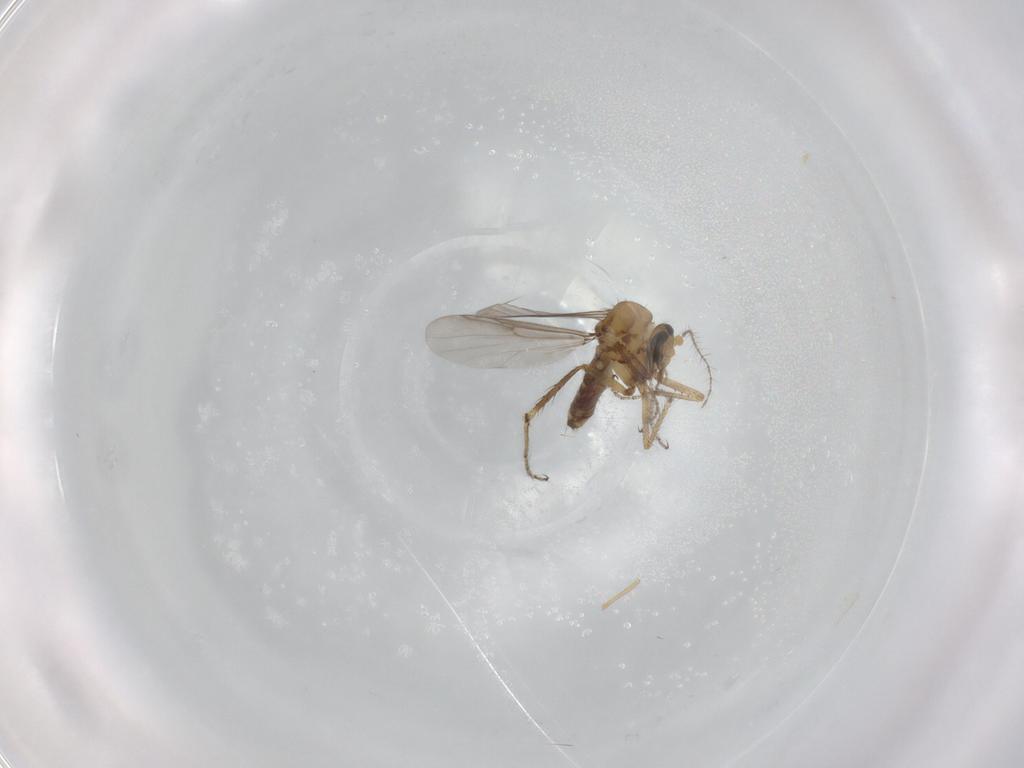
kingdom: Animalia
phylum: Arthropoda
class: Insecta
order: Diptera
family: Ceratopogonidae
